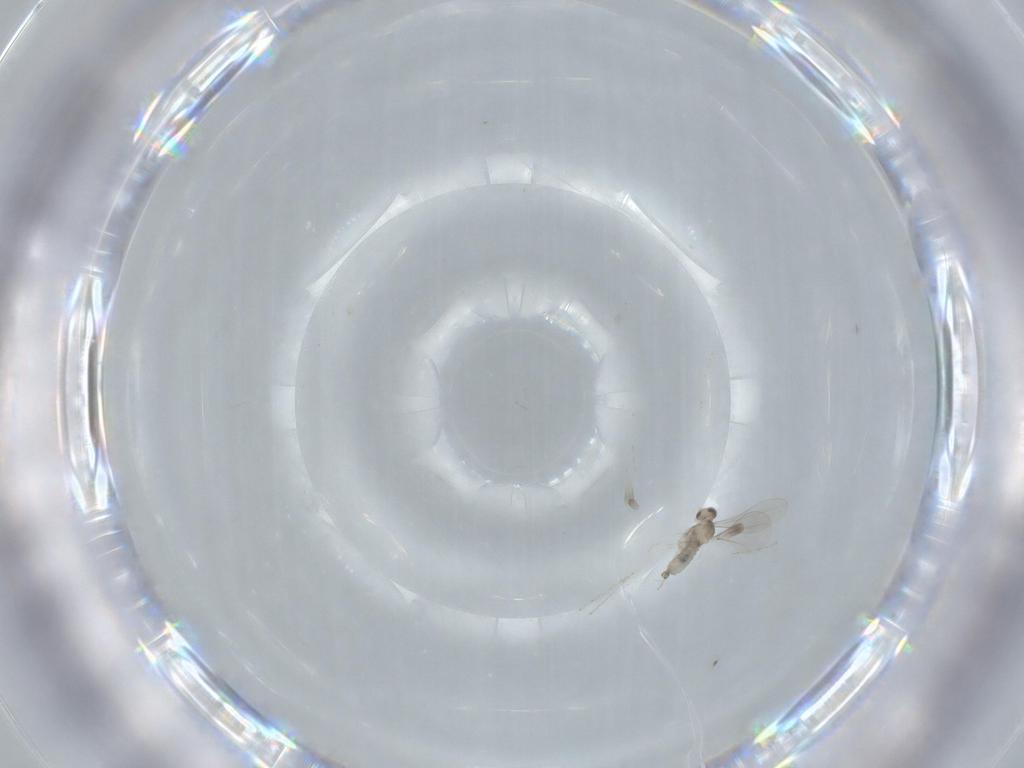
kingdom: Animalia
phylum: Arthropoda
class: Insecta
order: Diptera
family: Cecidomyiidae
